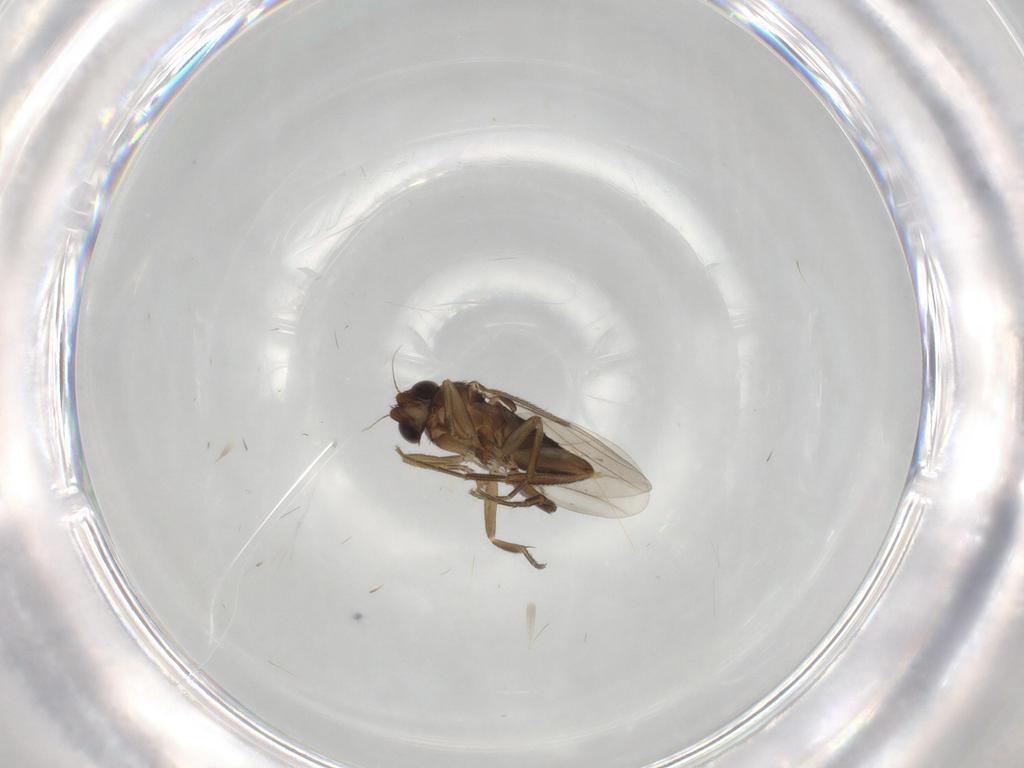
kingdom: Animalia
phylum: Arthropoda
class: Insecta
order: Diptera
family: Phoridae
